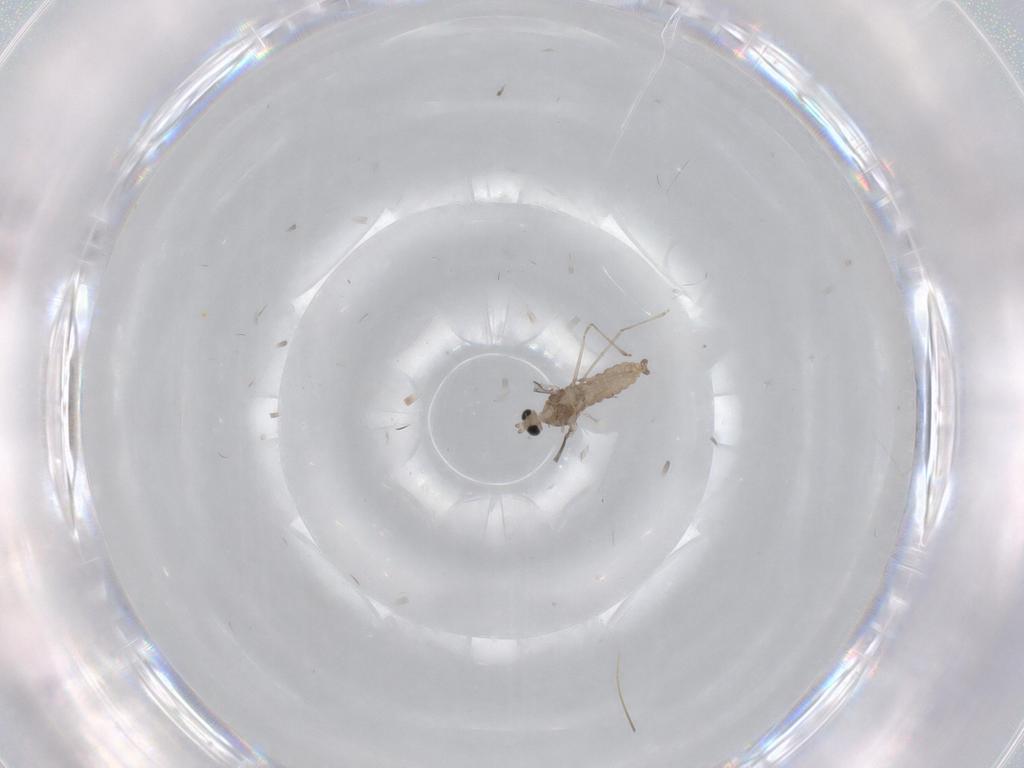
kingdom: Animalia
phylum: Arthropoda
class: Insecta
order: Diptera
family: Cecidomyiidae
